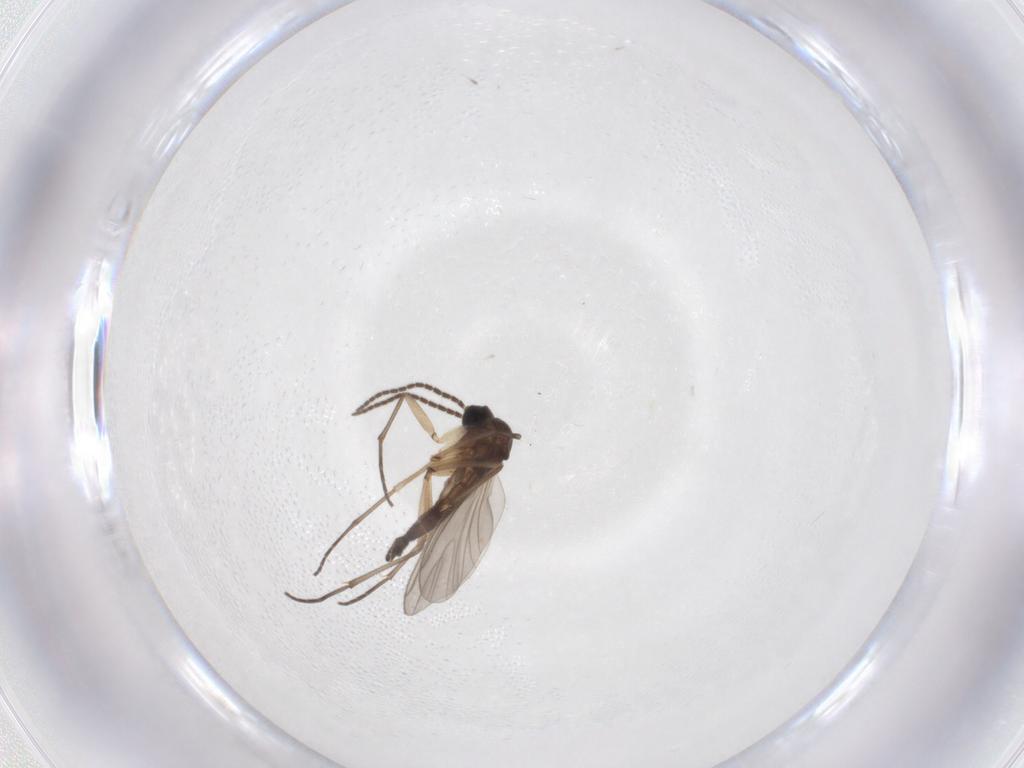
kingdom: Animalia
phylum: Arthropoda
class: Insecta
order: Diptera
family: Sciaridae
